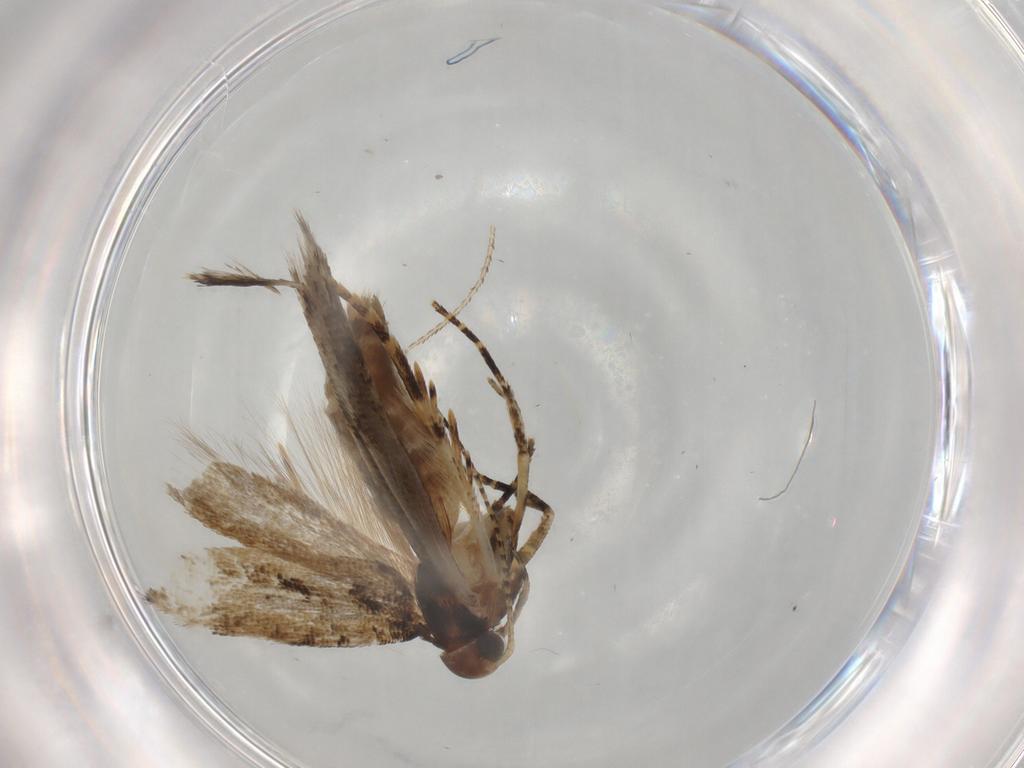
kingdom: Animalia
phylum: Arthropoda
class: Insecta
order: Lepidoptera
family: Gelechiidae
